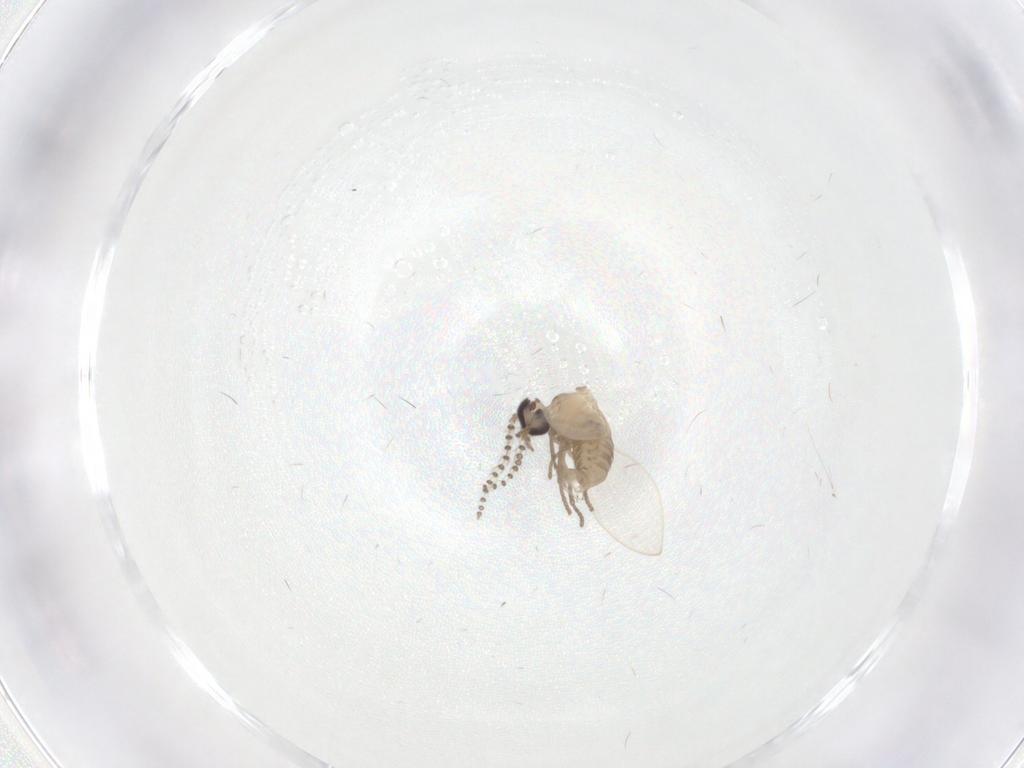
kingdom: Animalia
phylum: Arthropoda
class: Insecta
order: Diptera
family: Psychodidae
